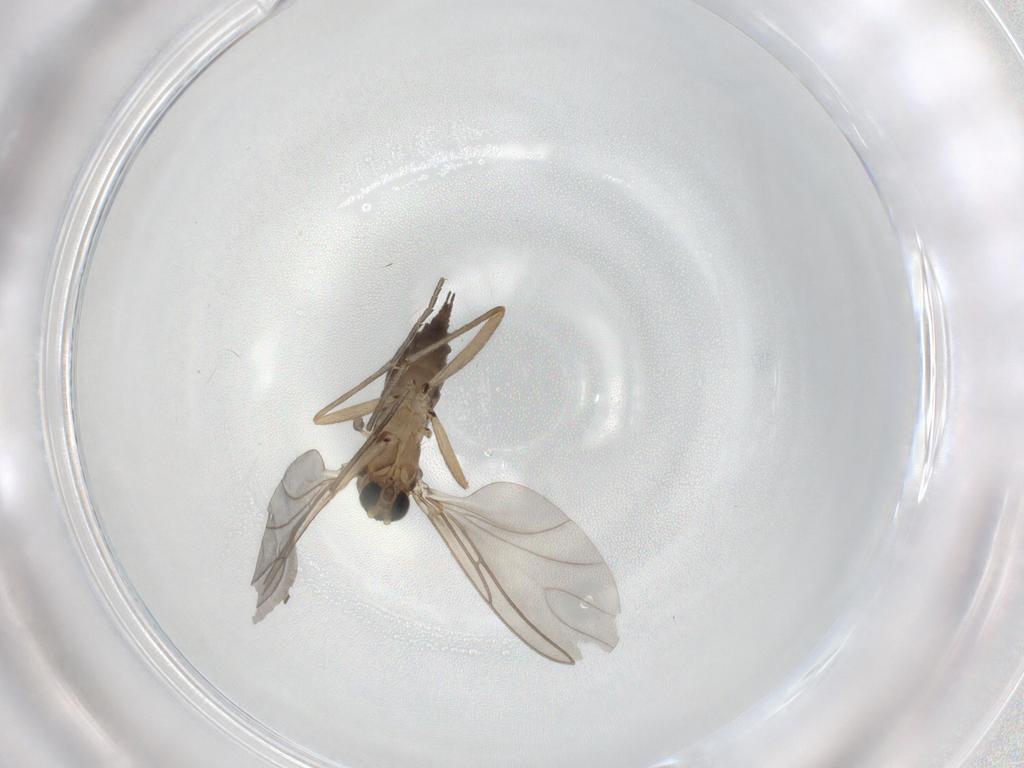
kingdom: Animalia
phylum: Arthropoda
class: Insecta
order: Diptera
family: Sciaridae
